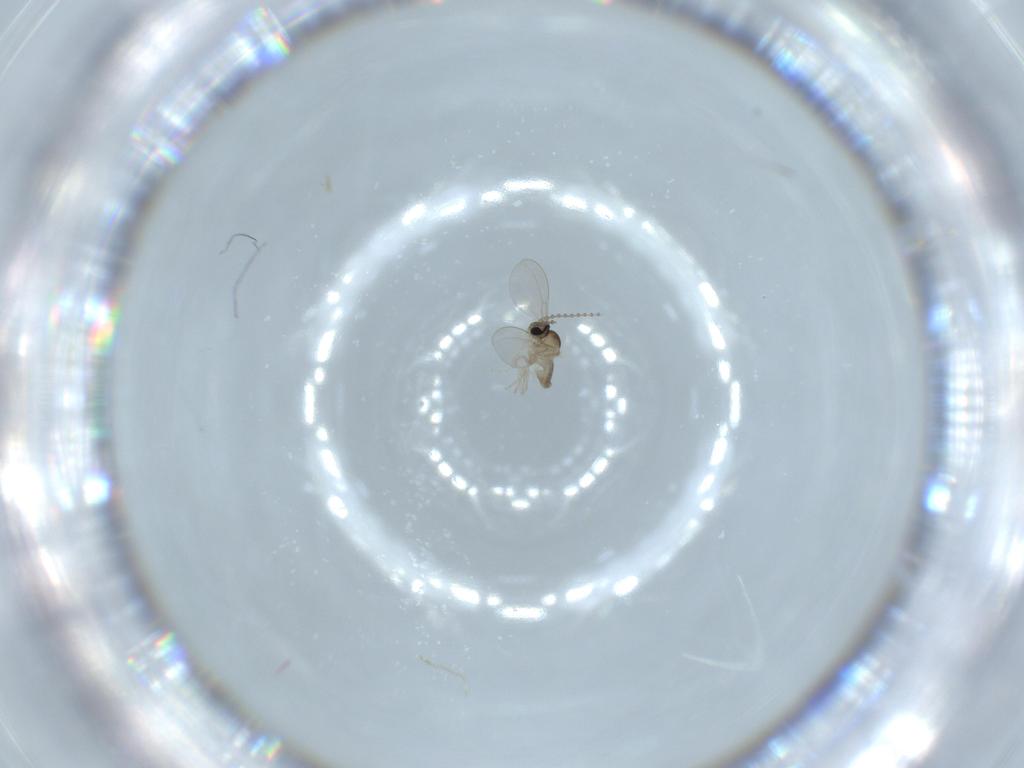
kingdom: Animalia
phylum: Arthropoda
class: Insecta
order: Diptera
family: Cecidomyiidae
